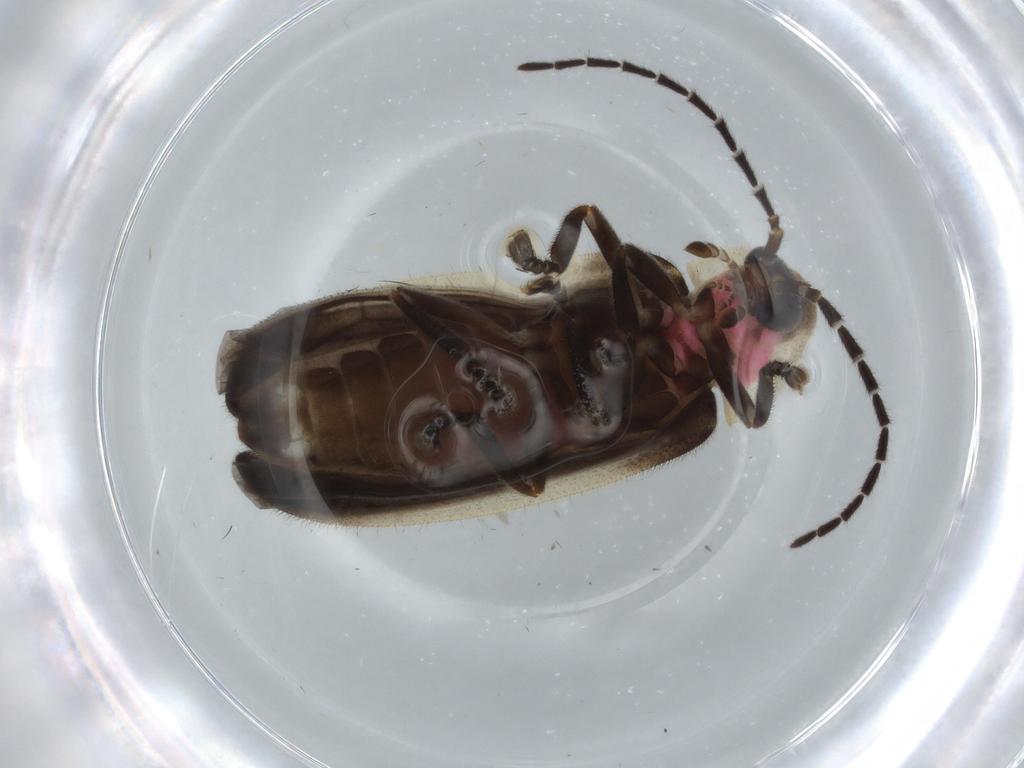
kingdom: Animalia
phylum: Arthropoda
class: Insecta
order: Coleoptera
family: Lampyridae
